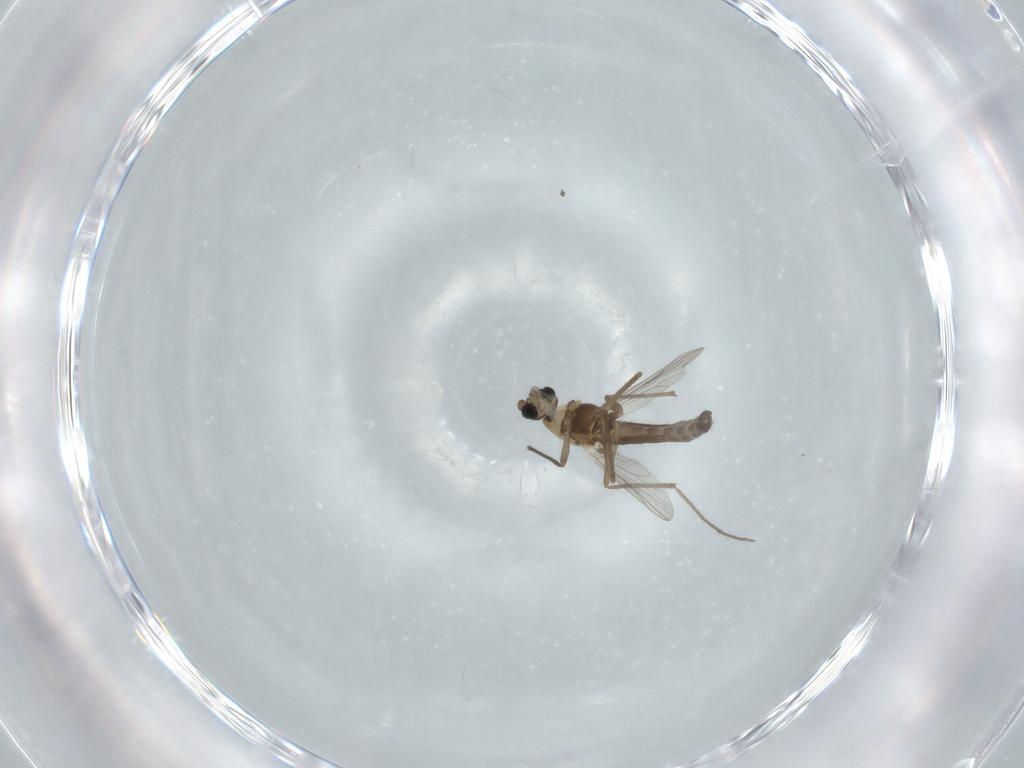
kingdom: Animalia
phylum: Arthropoda
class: Insecta
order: Diptera
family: Chironomidae
